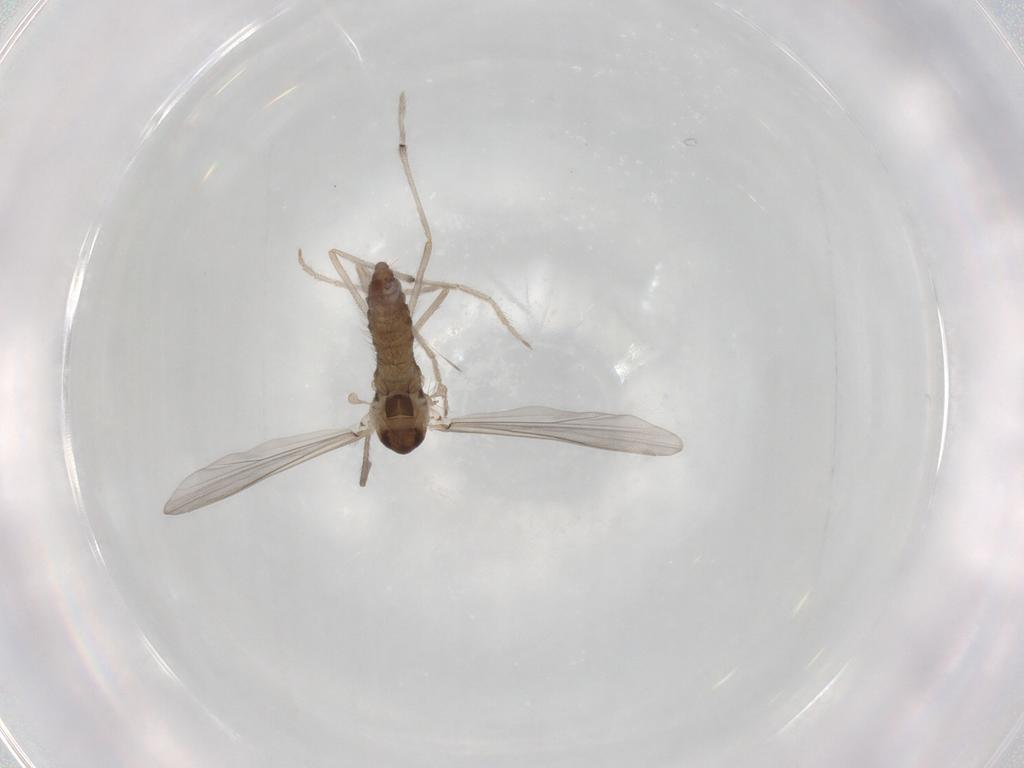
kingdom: Animalia
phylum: Arthropoda
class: Insecta
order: Diptera
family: Chironomidae
